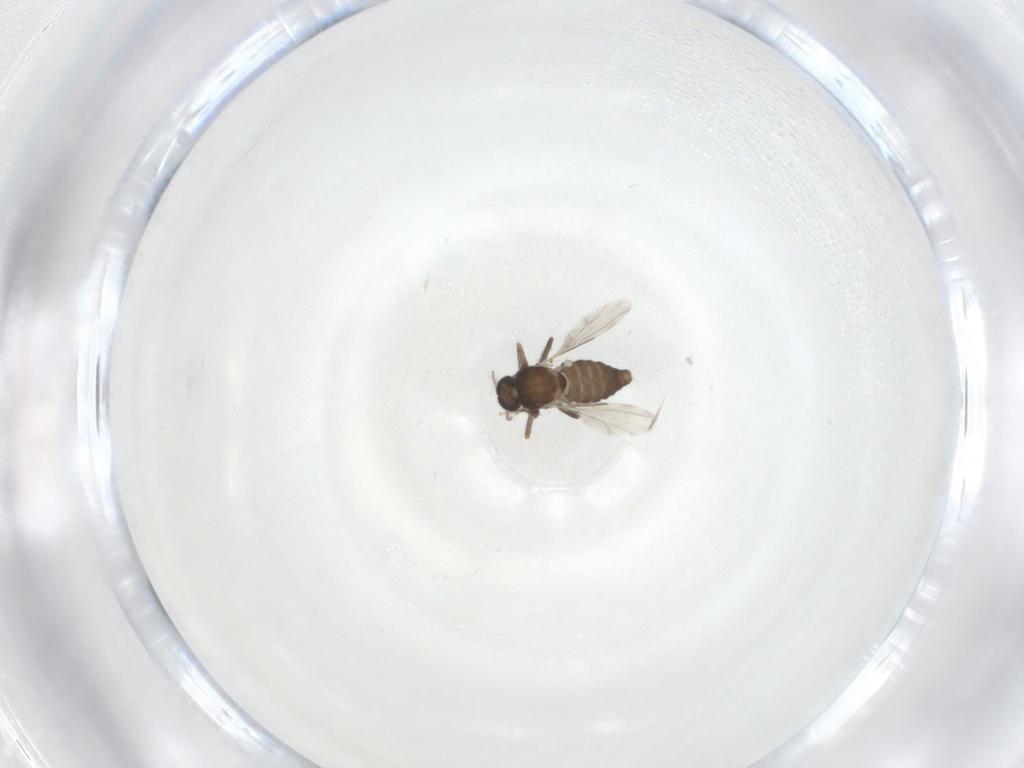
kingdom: Animalia
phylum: Arthropoda
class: Insecta
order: Diptera
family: Ceratopogonidae
